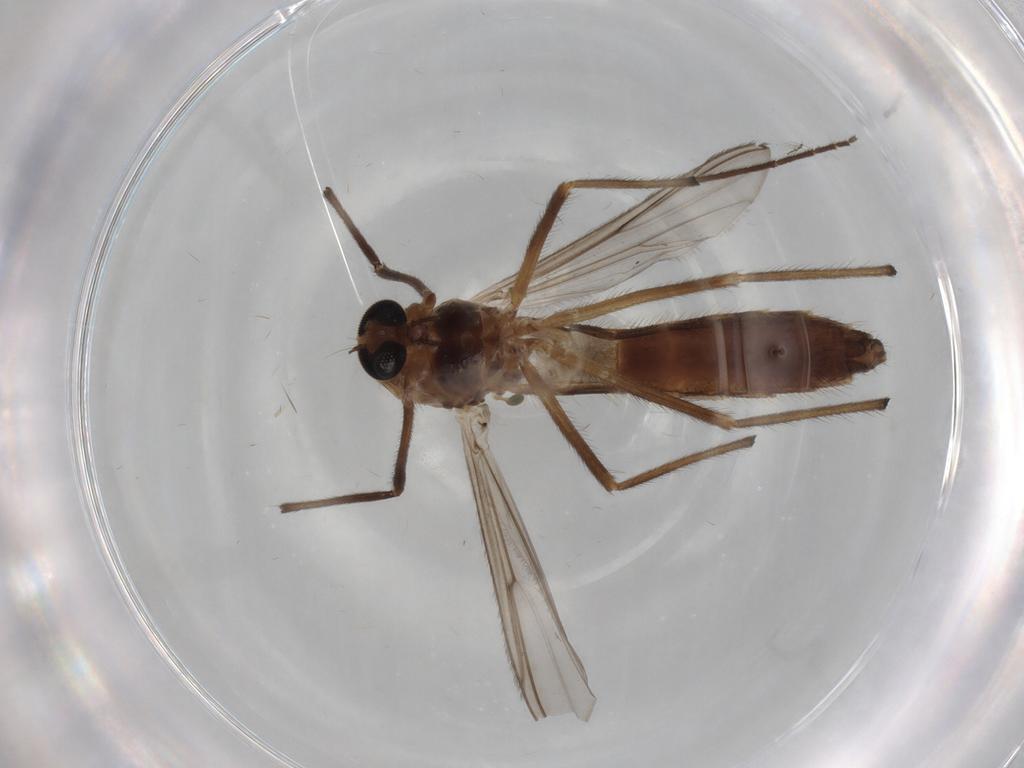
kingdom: Animalia
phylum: Arthropoda
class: Insecta
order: Diptera
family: Chironomidae
